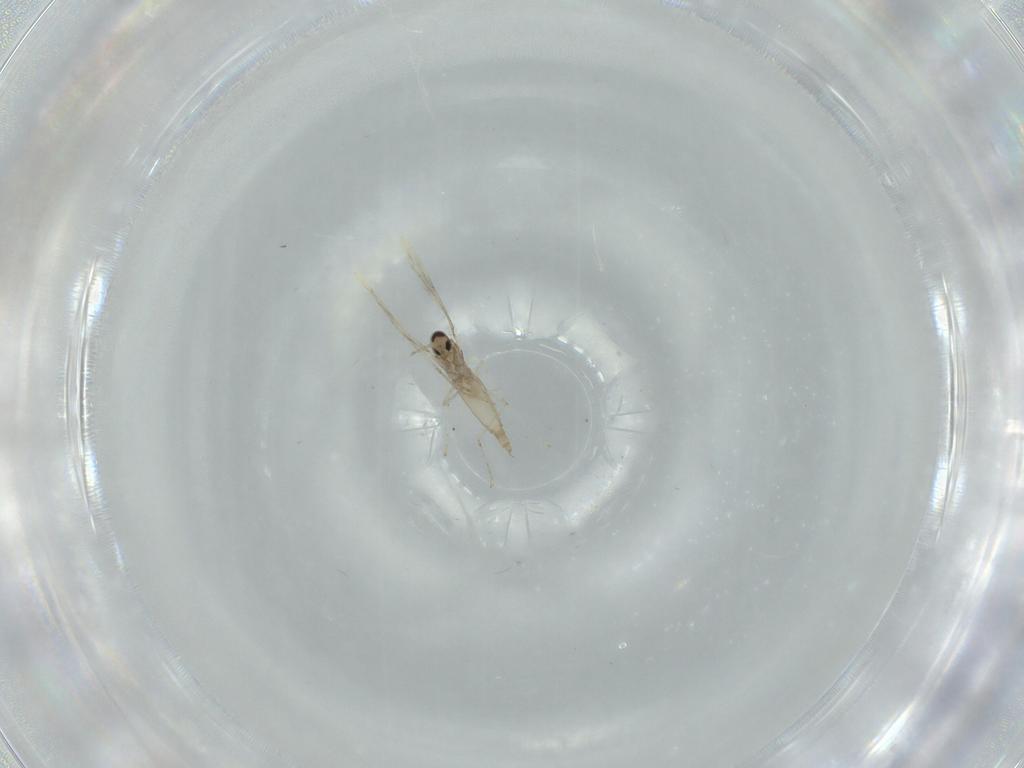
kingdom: Animalia
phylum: Arthropoda
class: Insecta
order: Diptera
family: Cecidomyiidae
